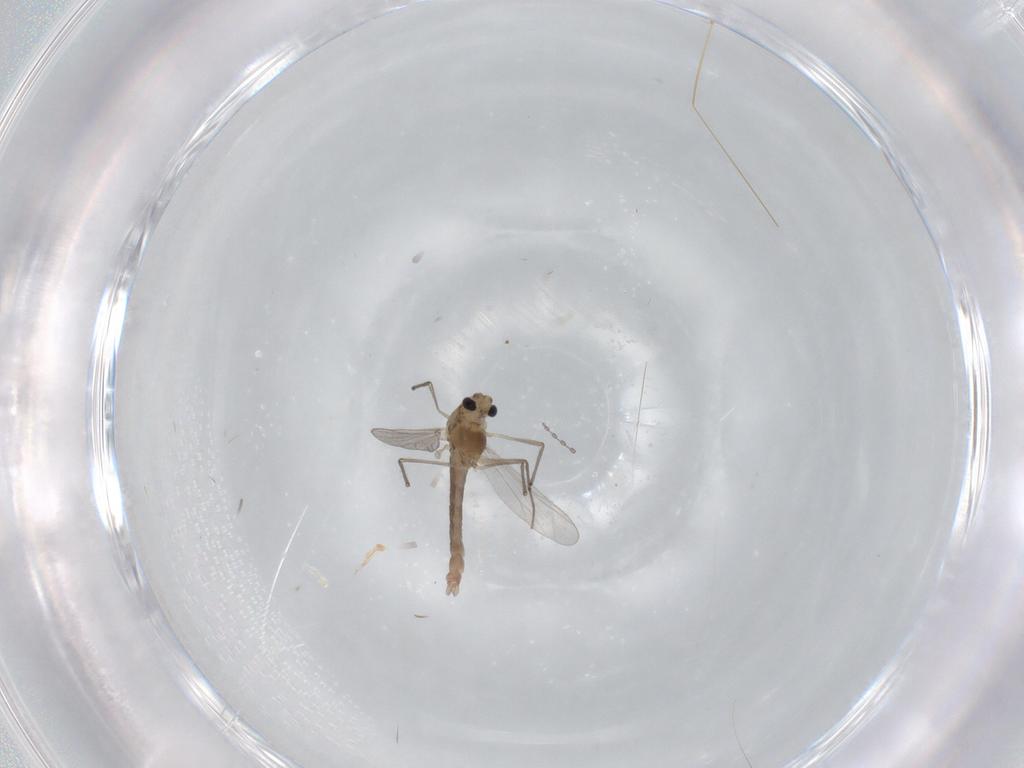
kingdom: Animalia
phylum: Arthropoda
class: Insecta
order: Diptera
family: Chironomidae
